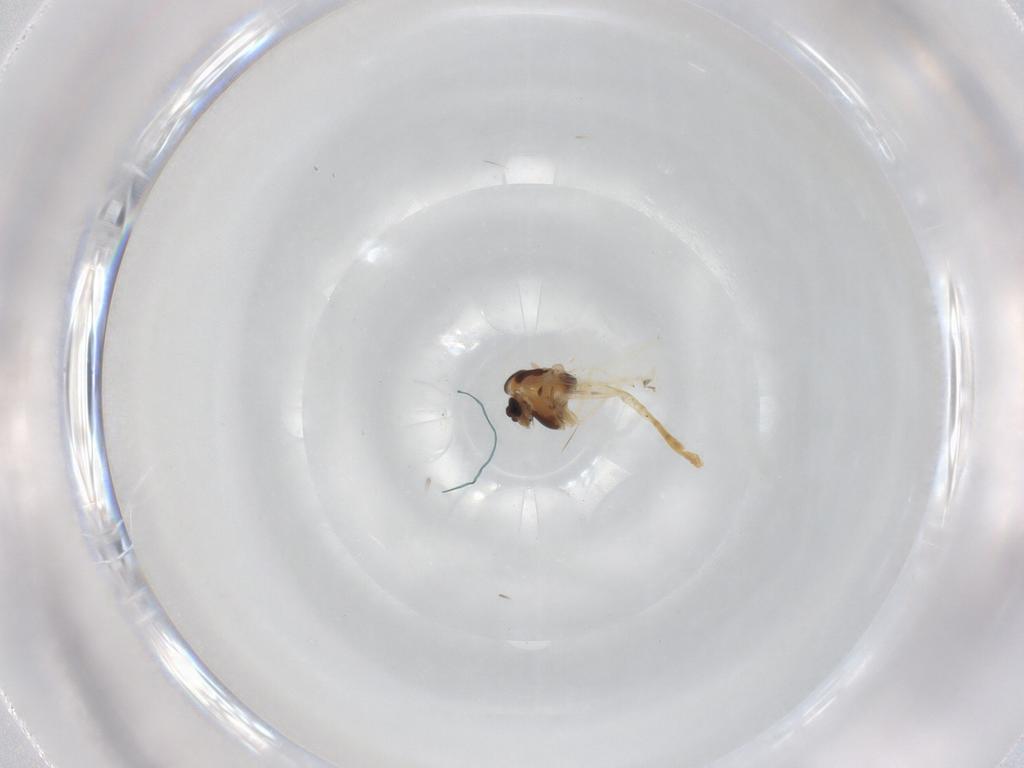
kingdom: Animalia
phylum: Arthropoda
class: Insecta
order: Diptera
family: Chironomidae
